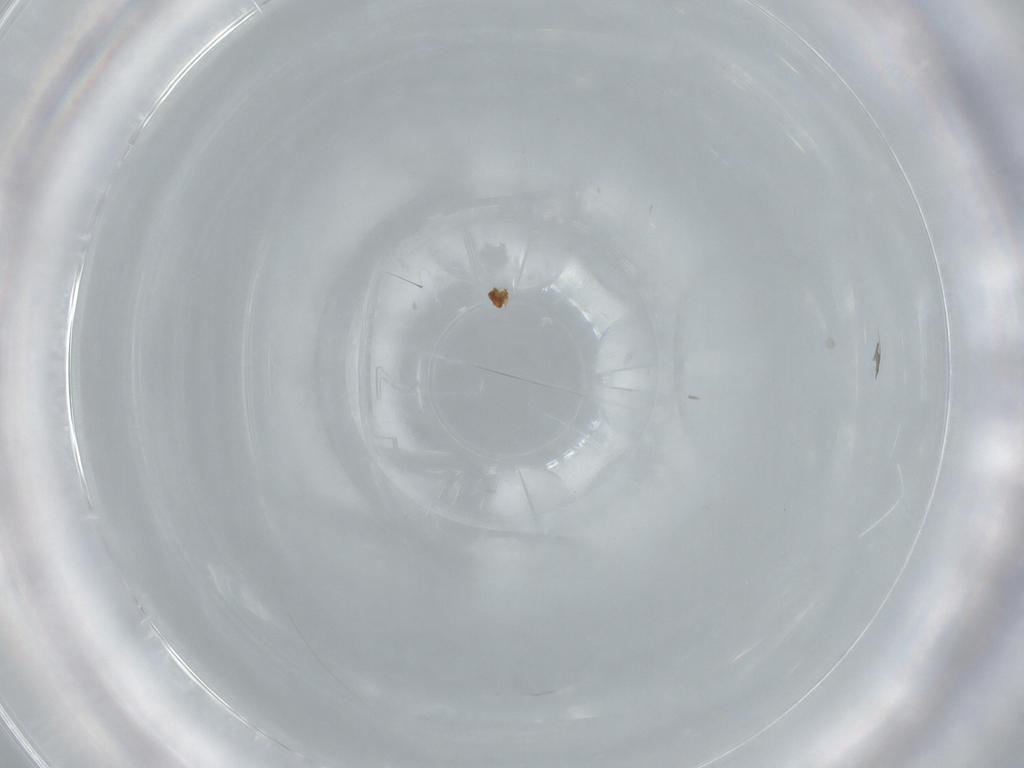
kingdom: Animalia
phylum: Arthropoda
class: Insecta
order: Diptera
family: Chironomidae
